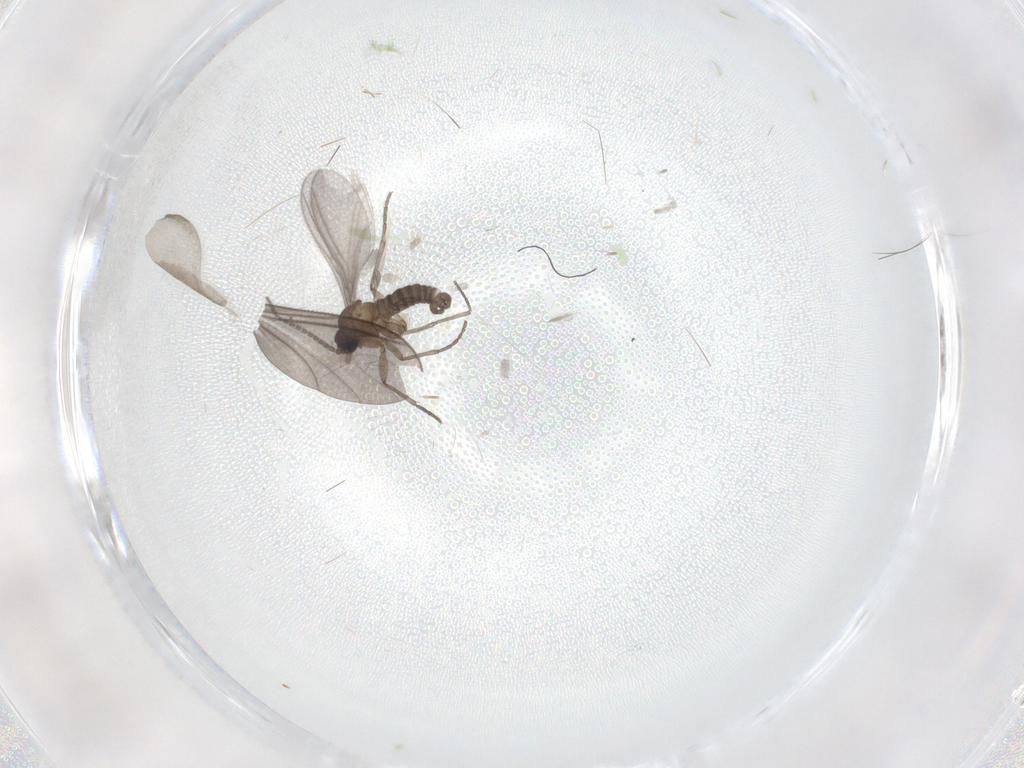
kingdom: Animalia
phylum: Arthropoda
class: Insecta
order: Diptera
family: Sciaridae
